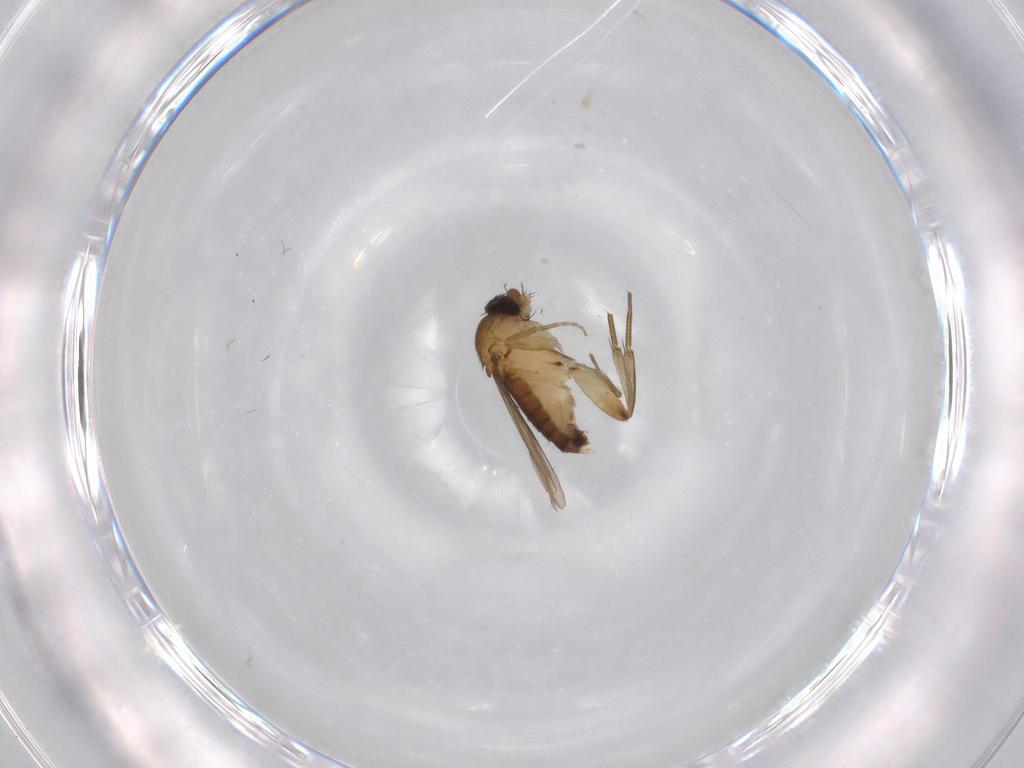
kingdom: Animalia
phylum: Arthropoda
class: Insecta
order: Diptera
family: Phoridae
